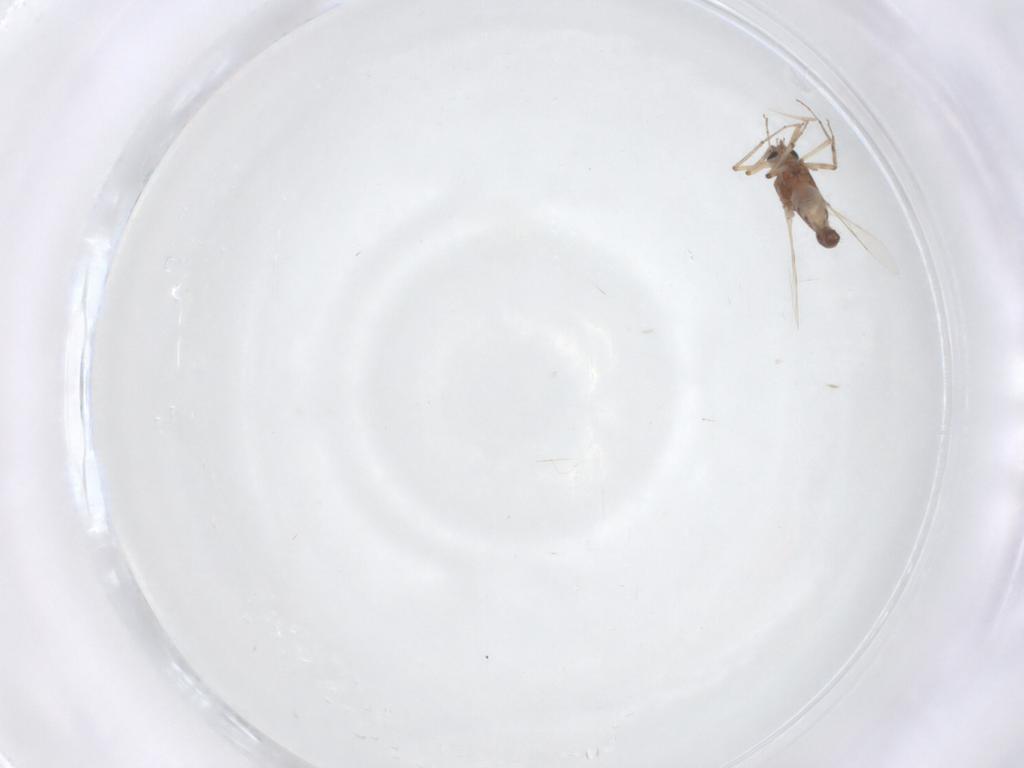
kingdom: Animalia
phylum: Arthropoda
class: Insecta
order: Diptera
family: Ceratopogonidae
